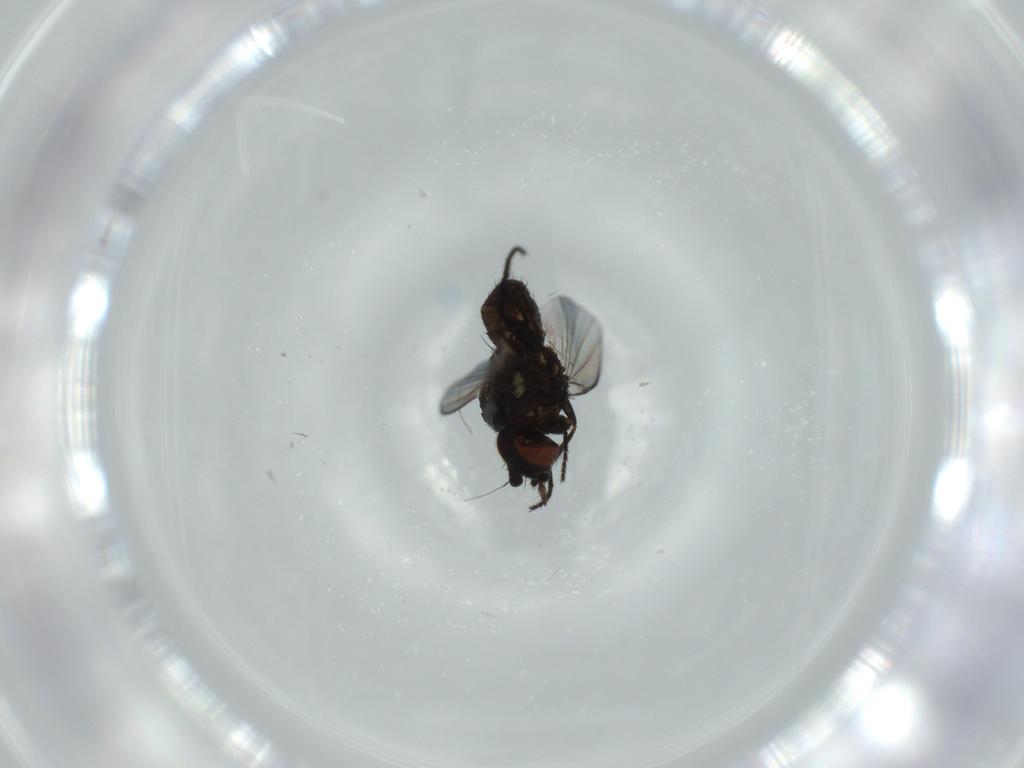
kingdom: Animalia
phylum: Arthropoda
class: Insecta
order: Diptera
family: Milichiidae
